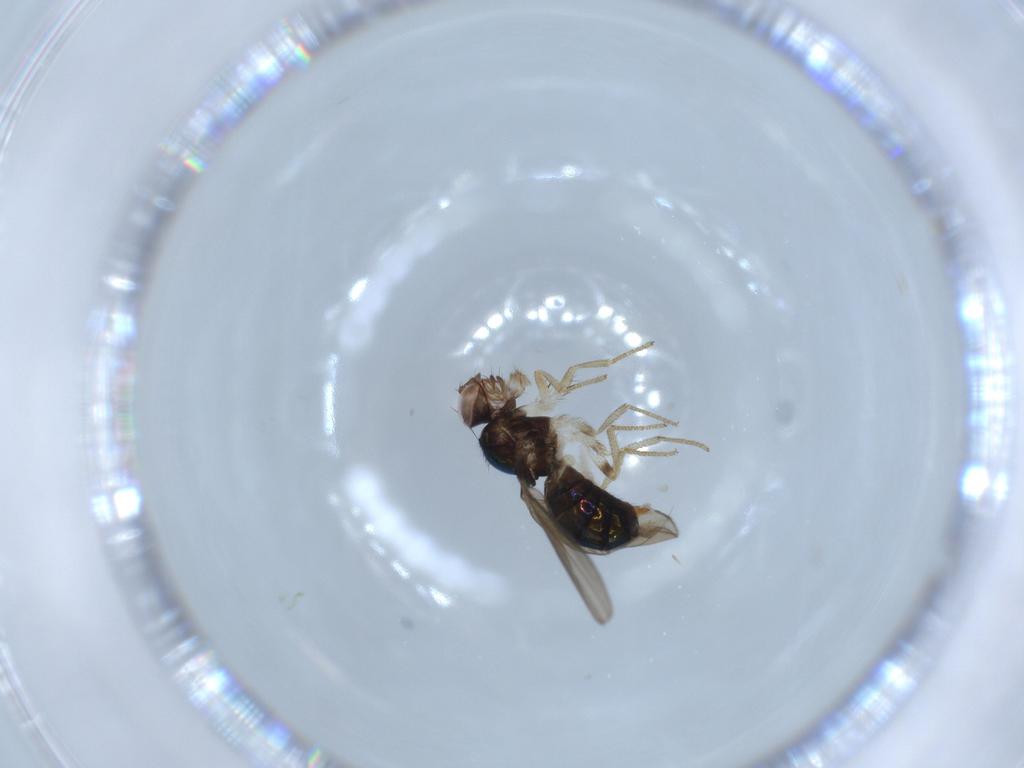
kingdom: Animalia
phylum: Arthropoda
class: Insecta
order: Diptera
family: Drosophilidae
